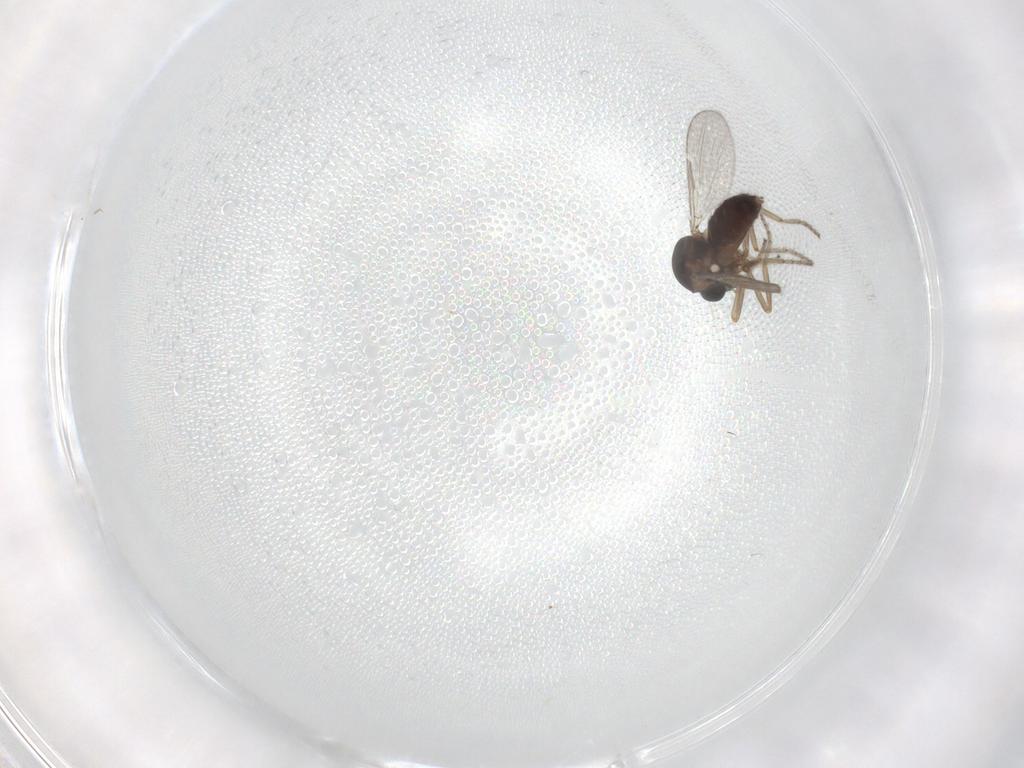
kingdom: Animalia
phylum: Arthropoda
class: Insecta
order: Diptera
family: Ceratopogonidae
